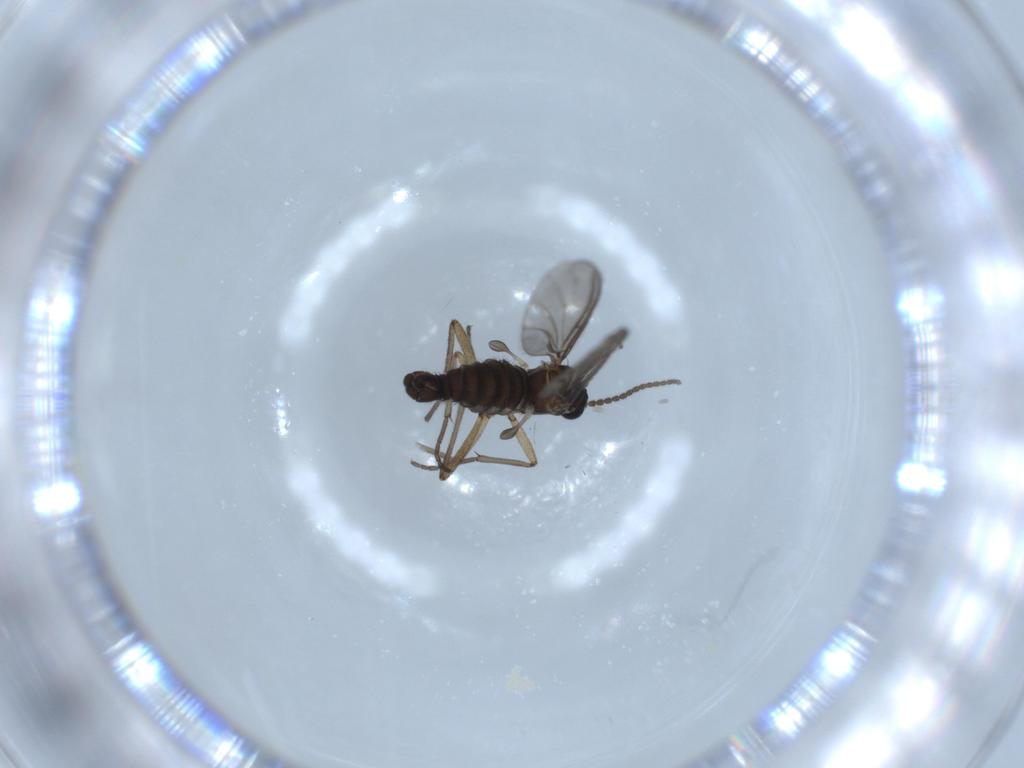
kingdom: Animalia
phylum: Arthropoda
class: Insecta
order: Diptera
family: Sciaridae
